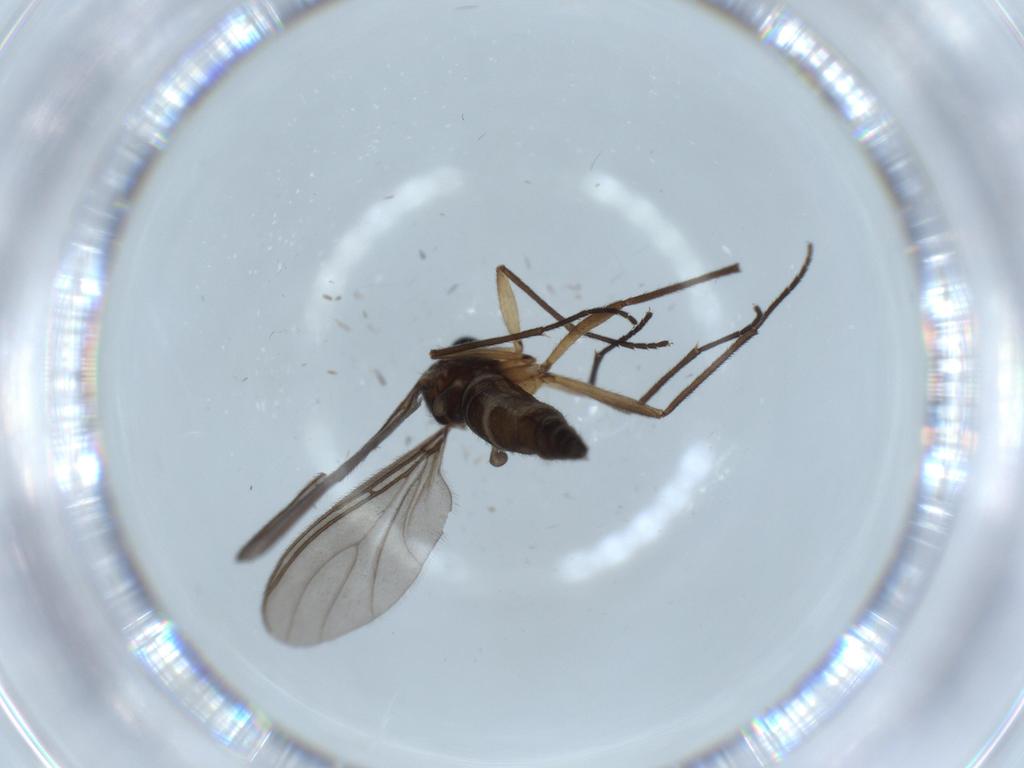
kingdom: Animalia
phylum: Arthropoda
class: Insecta
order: Diptera
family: Sciaridae
